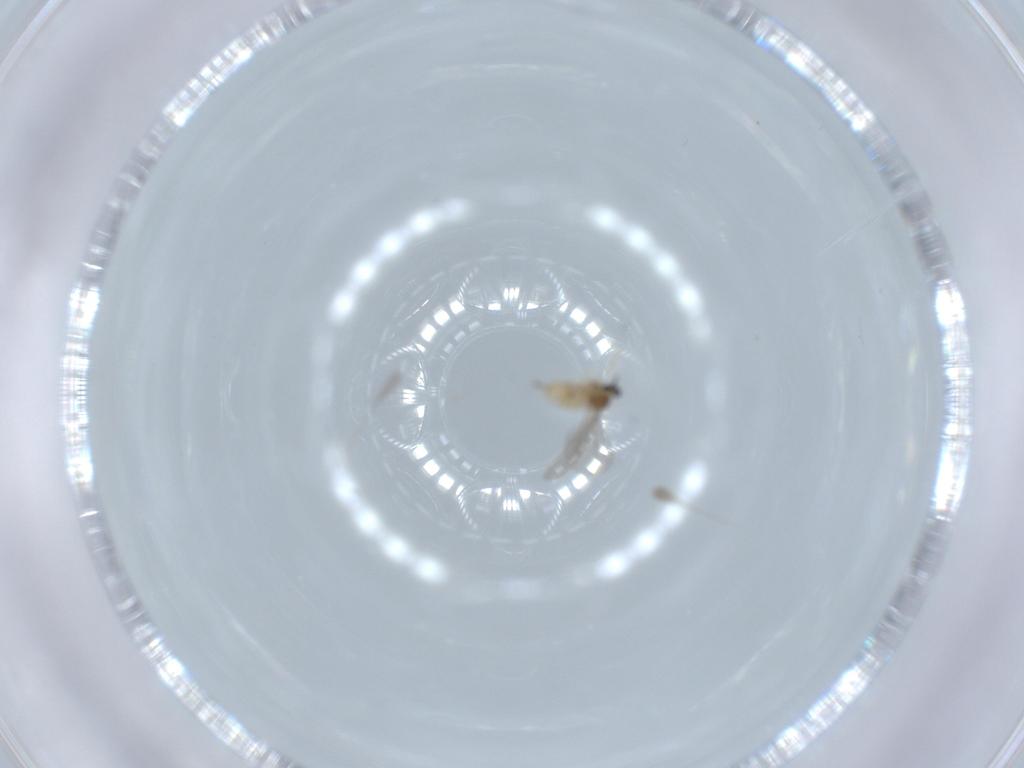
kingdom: Animalia
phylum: Arthropoda
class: Insecta
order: Diptera
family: Cecidomyiidae
